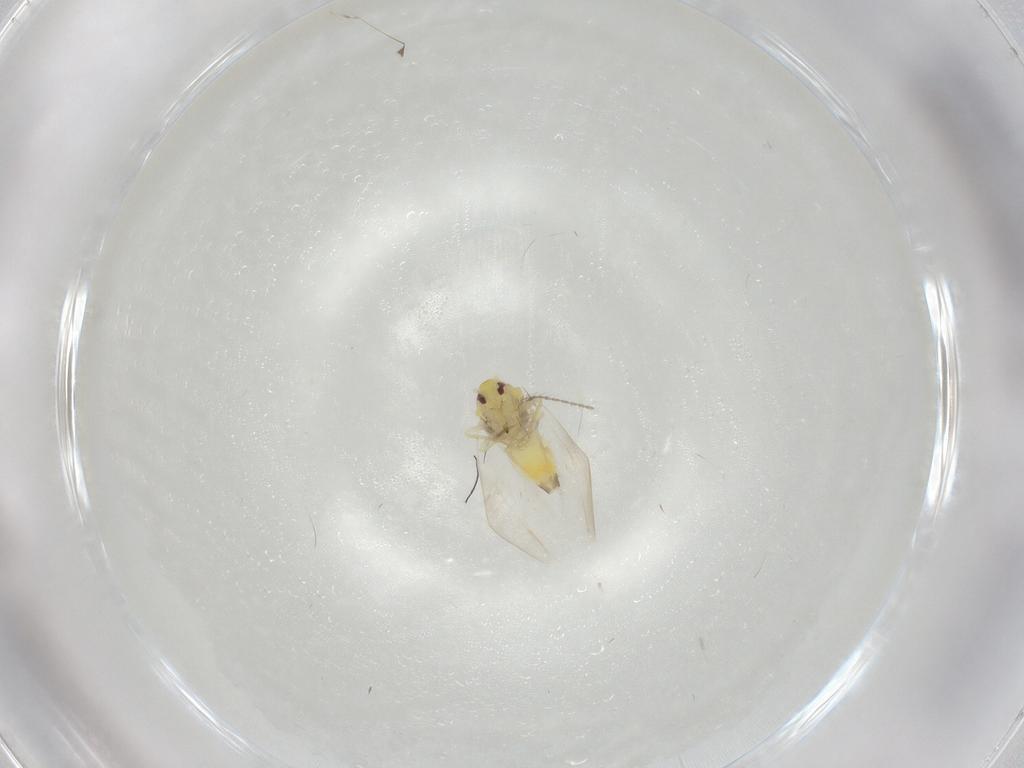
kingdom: Animalia
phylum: Arthropoda
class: Insecta
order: Hemiptera
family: Aleyrodidae
